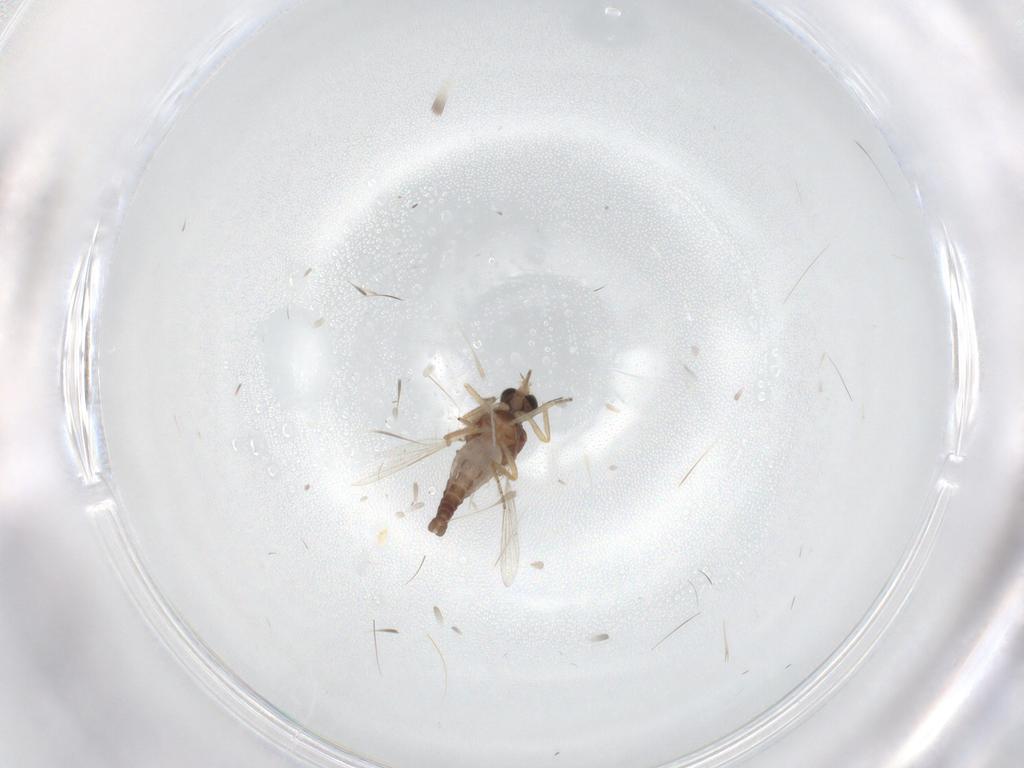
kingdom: Animalia
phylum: Arthropoda
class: Insecta
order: Diptera
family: Ceratopogonidae
